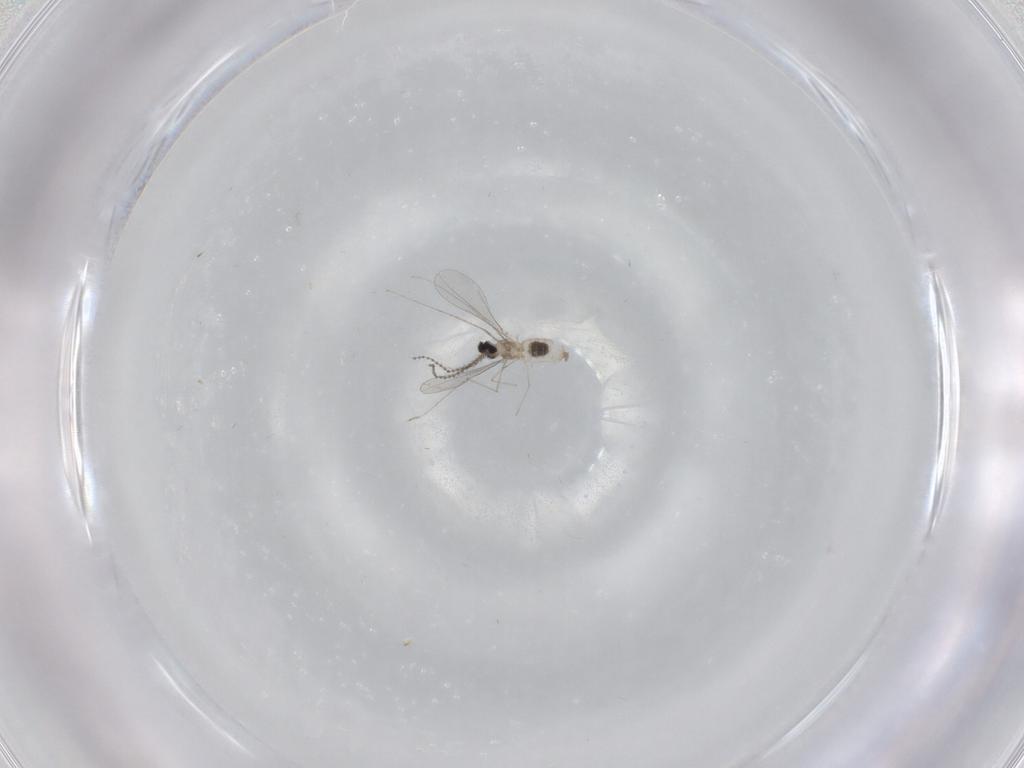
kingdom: Animalia
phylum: Arthropoda
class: Insecta
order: Diptera
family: Cecidomyiidae
